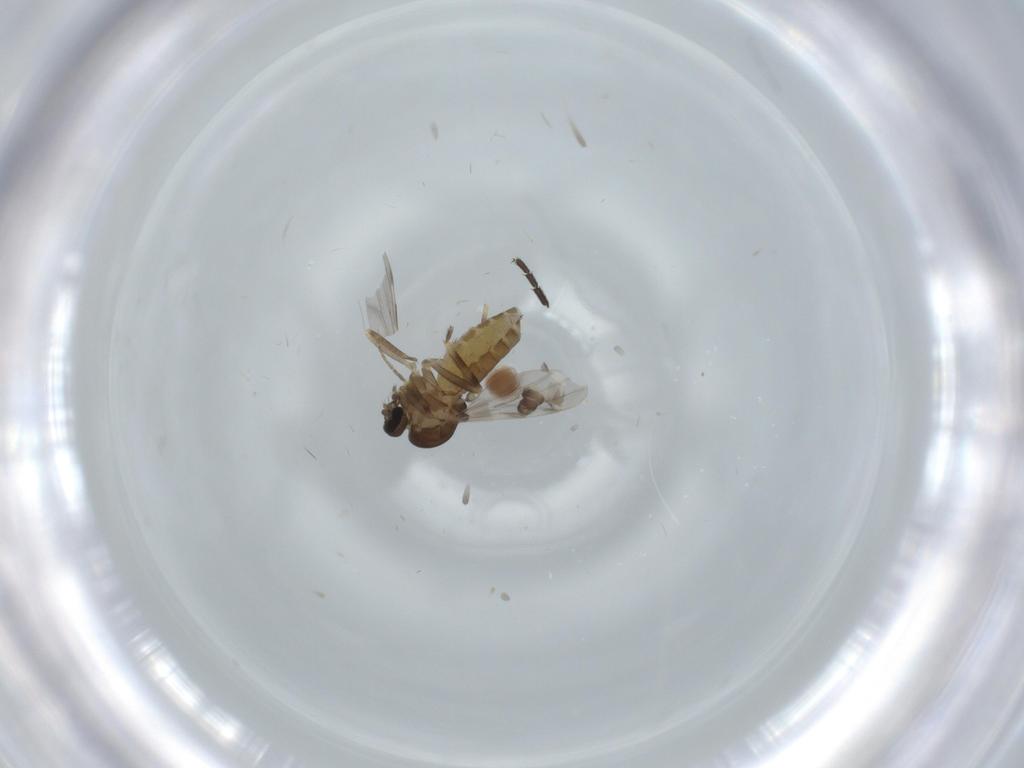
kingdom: Animalia
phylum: Arthropoda
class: Insecta
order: Diptera
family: Ceratopogonidae
